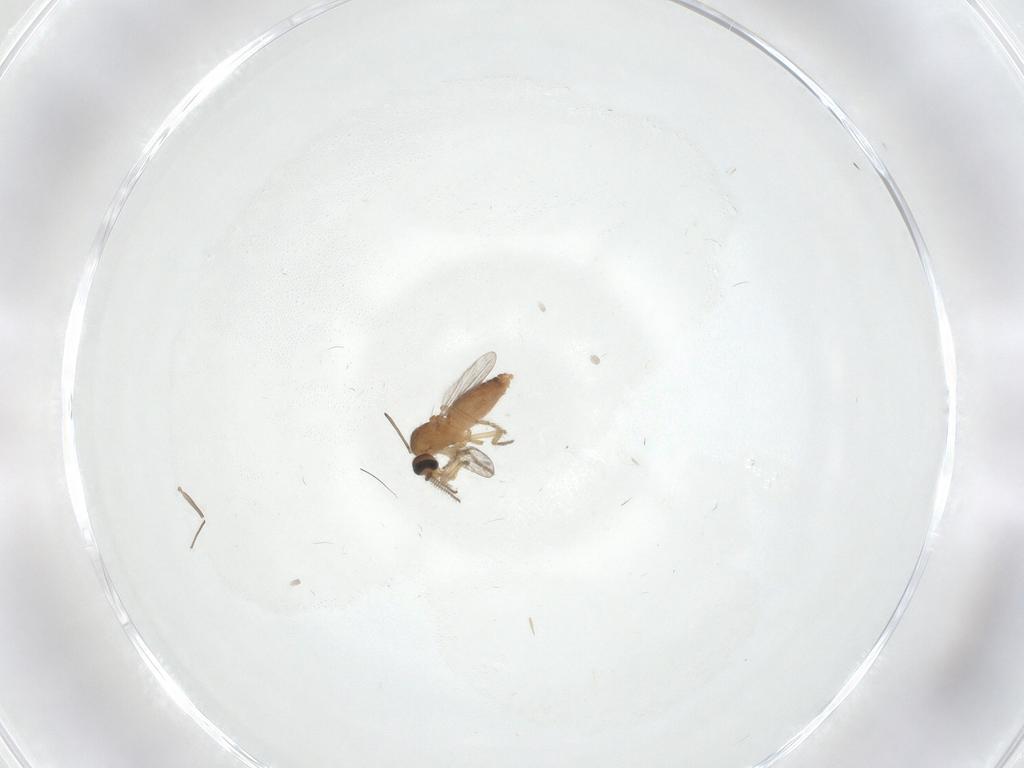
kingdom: Animalia
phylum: Arthropoda
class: Insecta
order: Diptera
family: Ceratopogonidae
